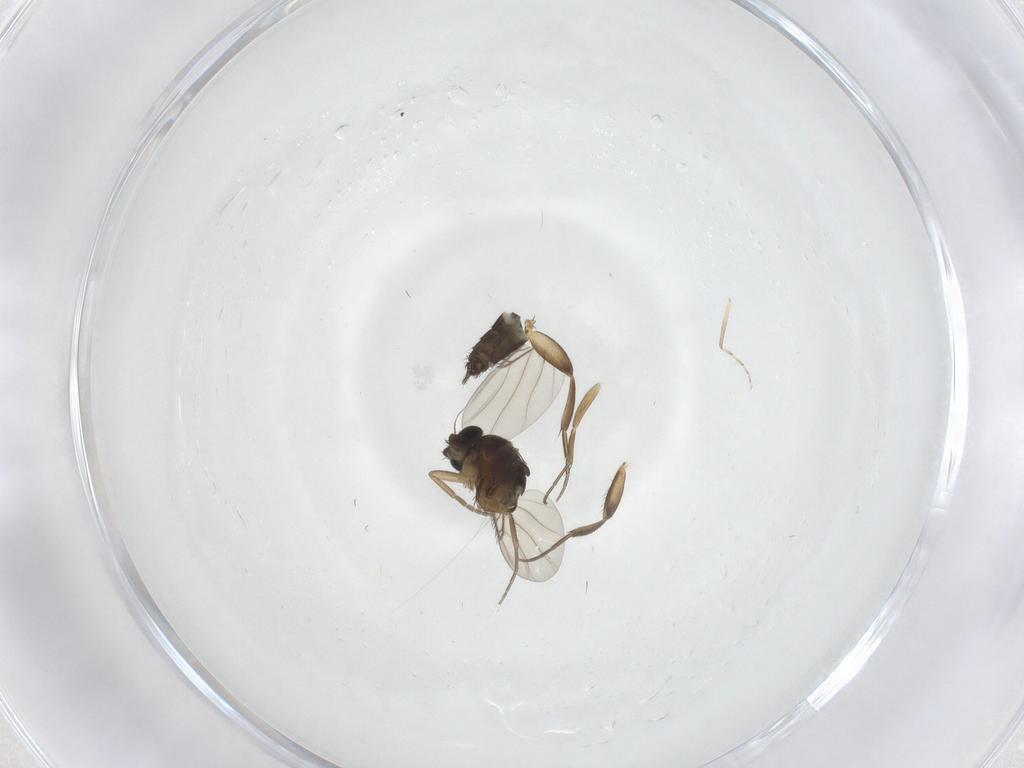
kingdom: Animalia
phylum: Arthropoda
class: Insecta
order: Diptera
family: Phoridae
